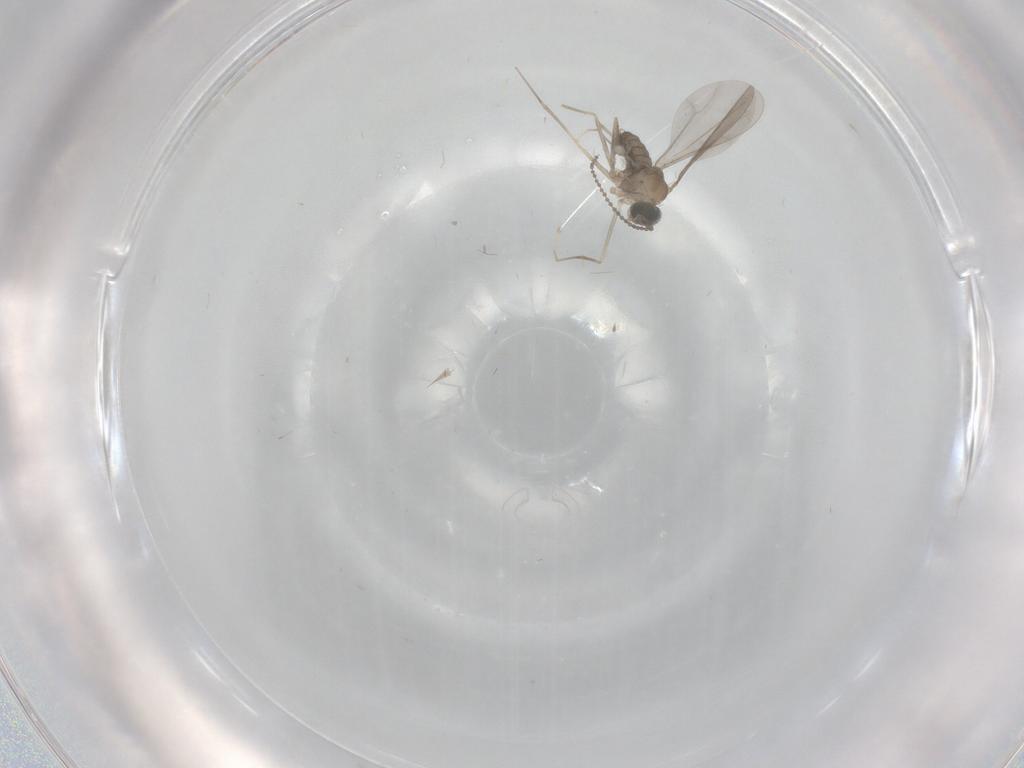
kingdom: Animalia
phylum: Arthropoda
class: Insecta
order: Diptera
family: Cecidomyiidae
